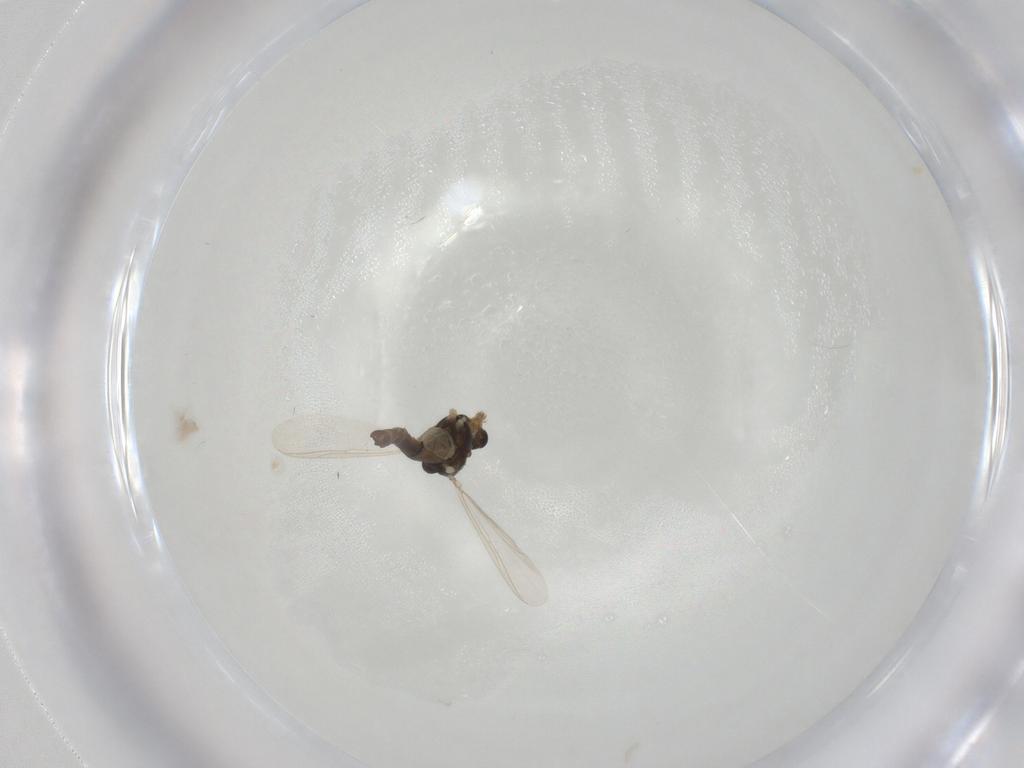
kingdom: Animalia
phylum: Arthropoda
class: Insecta
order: Diptera
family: Chironomidae
